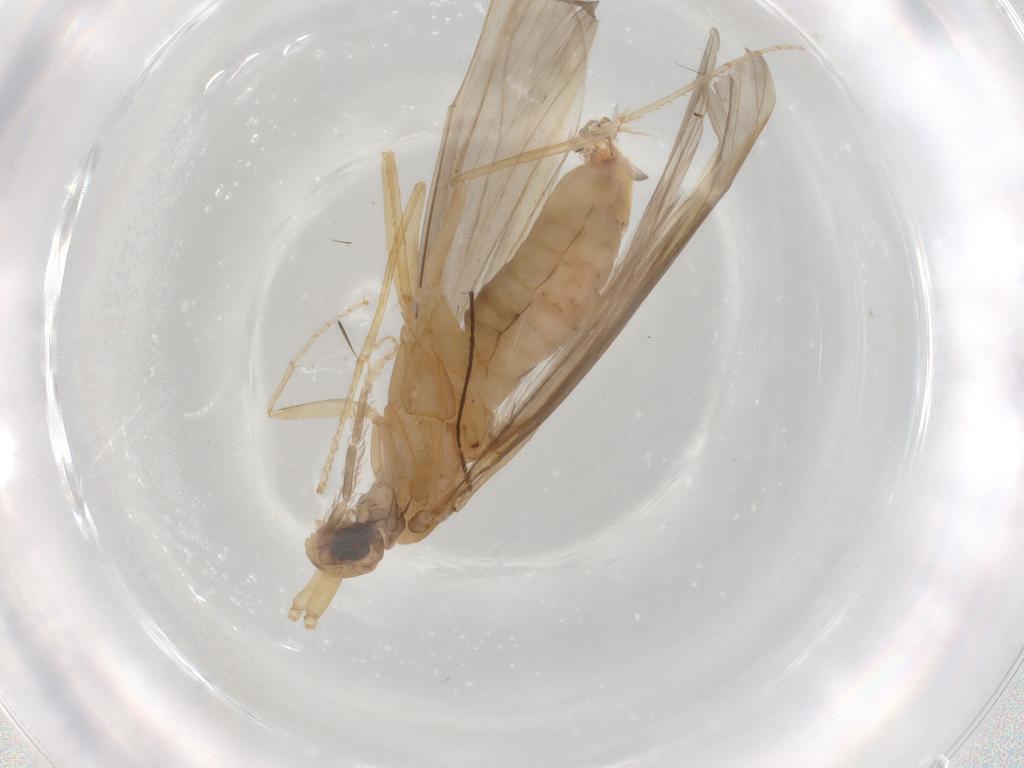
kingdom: Animalia
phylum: Arthropoda
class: Insecta
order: Trichoptera
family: Leptoceridae
